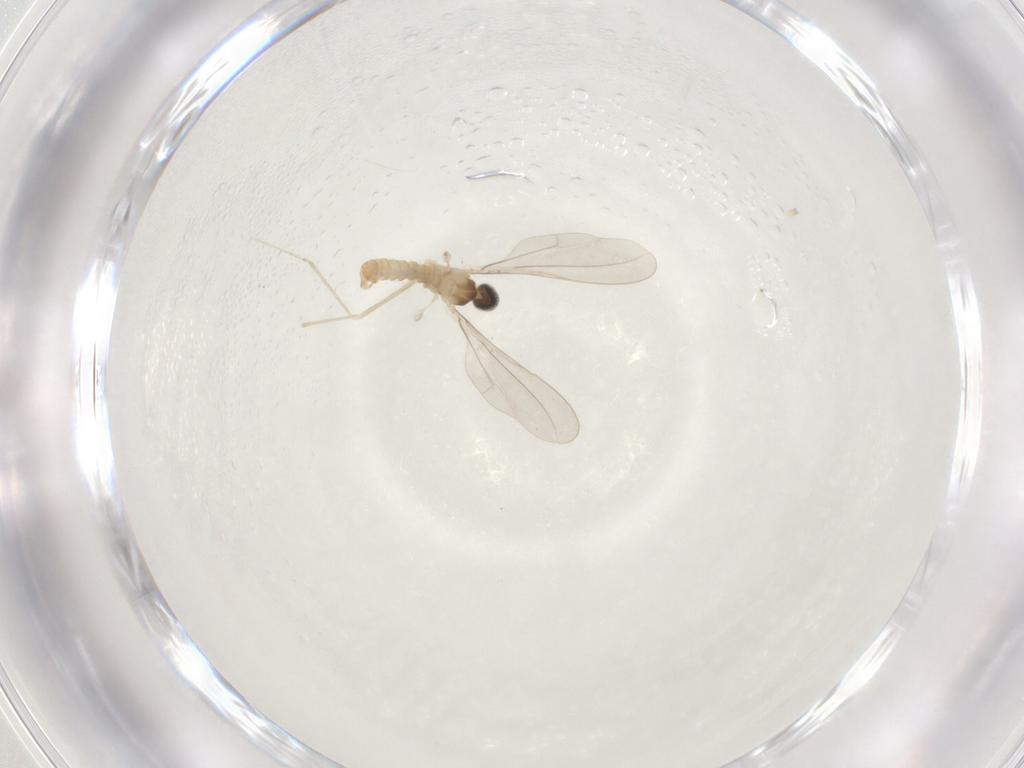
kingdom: Animalia
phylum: Arthropoda
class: Insecta
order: Diptera
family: Cecidomyiidae
